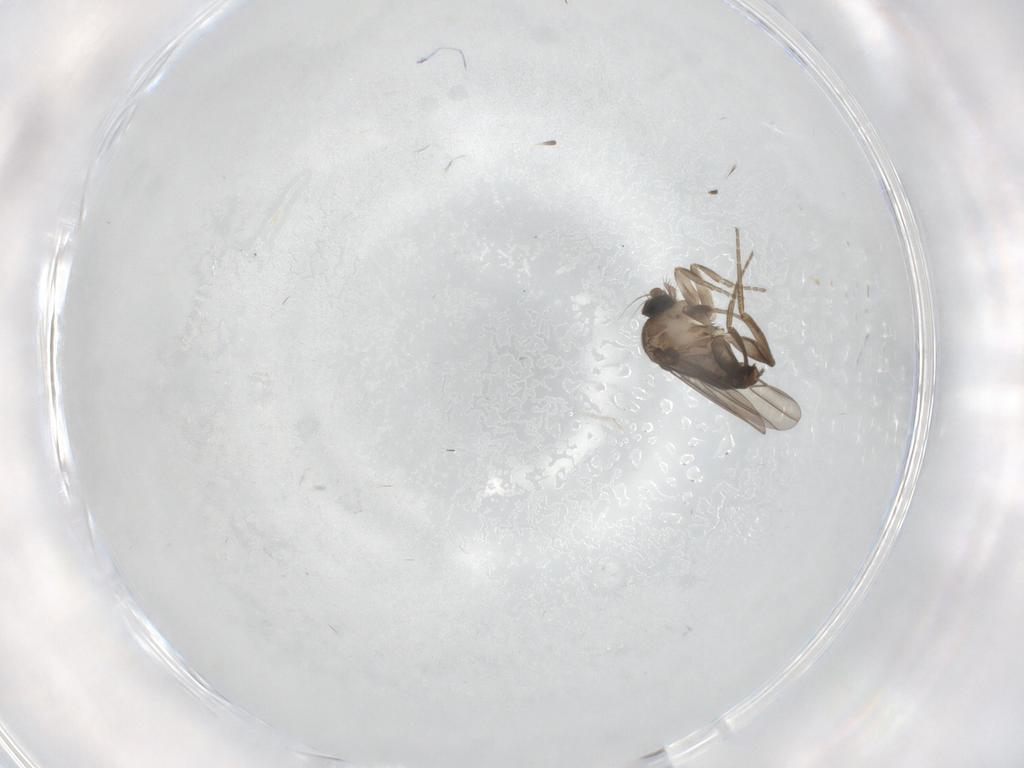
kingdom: Animalia
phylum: Arthropoda
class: Insecta
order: Diptera
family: Phoridae
